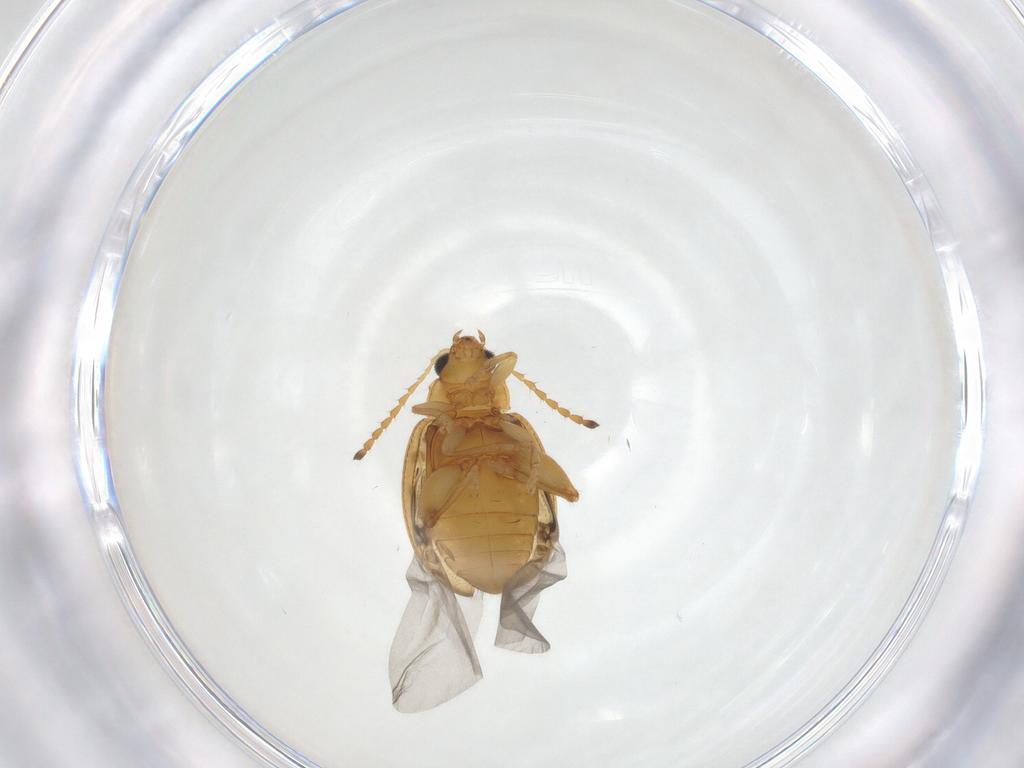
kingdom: Animalia
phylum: Arthropoda
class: Insecta
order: Coleoptera
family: Chrysomelidae
